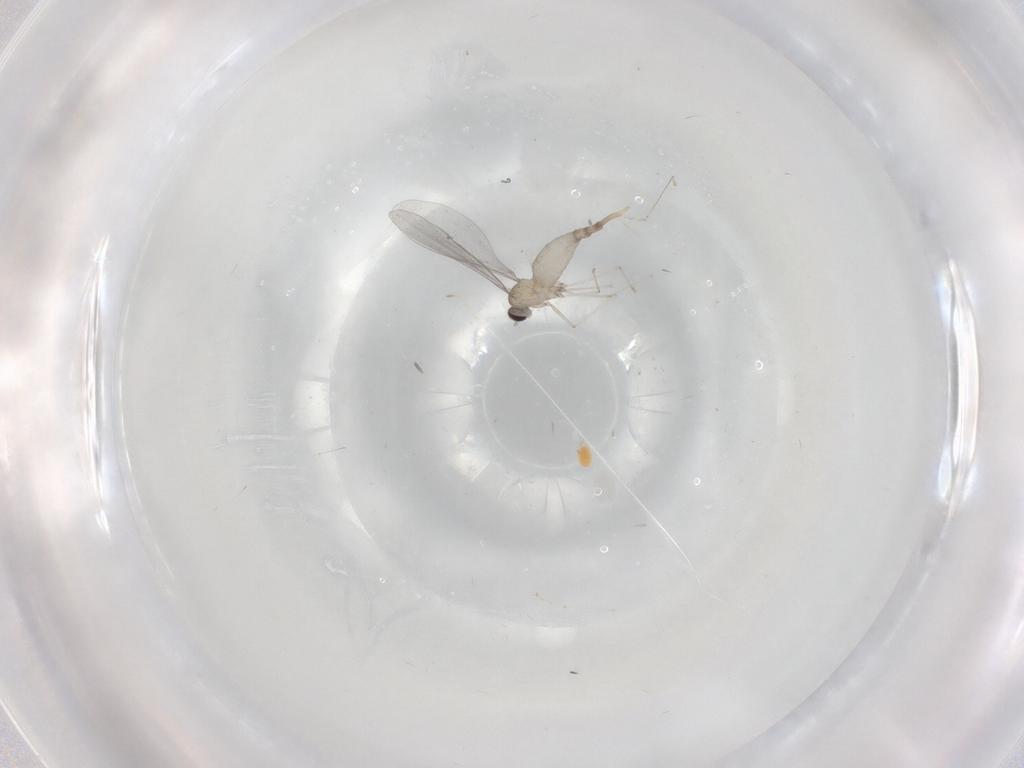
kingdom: Animalia
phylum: Arthropoda
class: Insecta
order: Diptera
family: Cecidomyiidae
